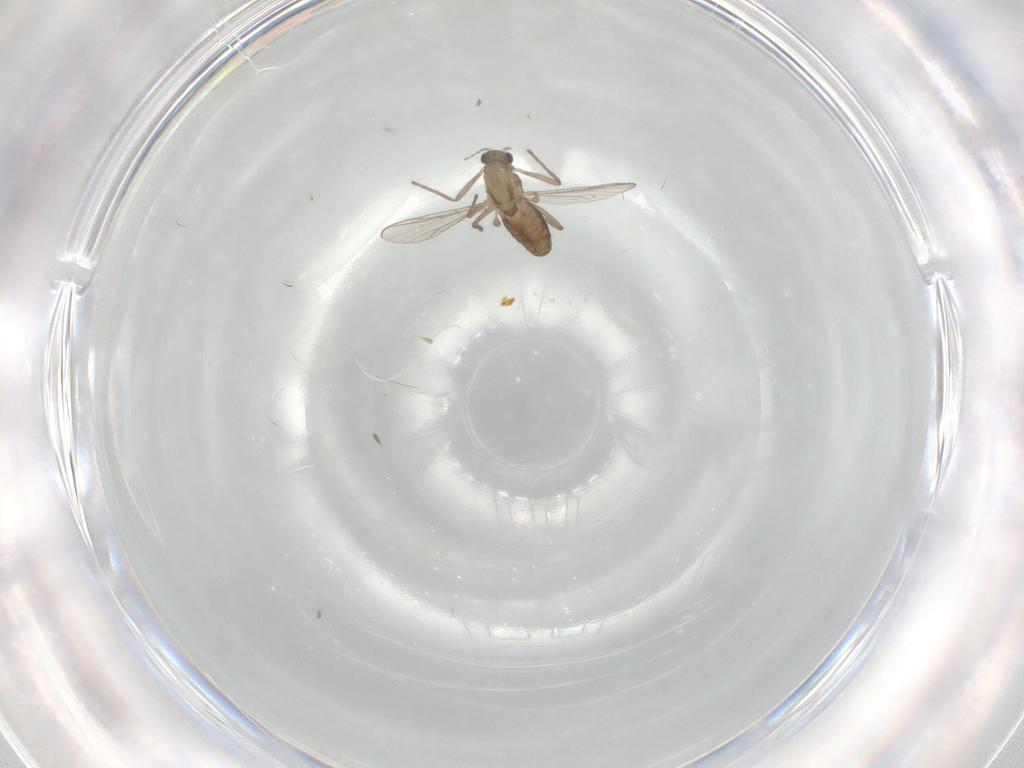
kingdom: Animalia
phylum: Arthropoda
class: Insecta
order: Diptera
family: Chironomidae
